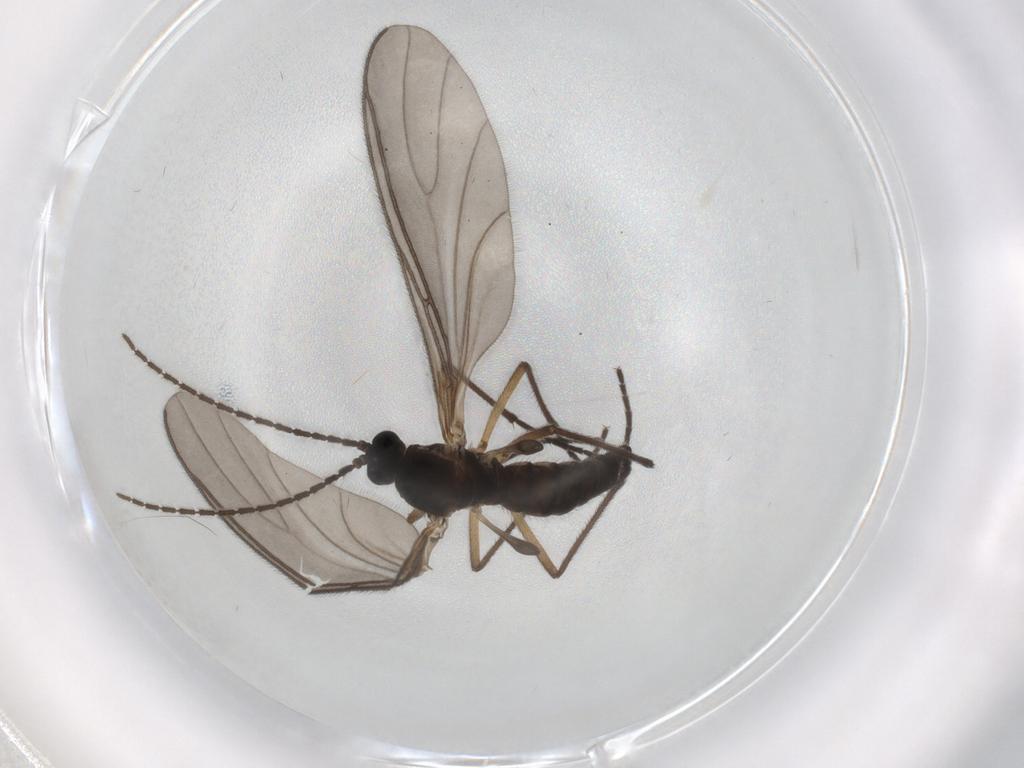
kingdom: Animalia
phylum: Arthropoda
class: Insecta
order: Diptera
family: Sciaridae
